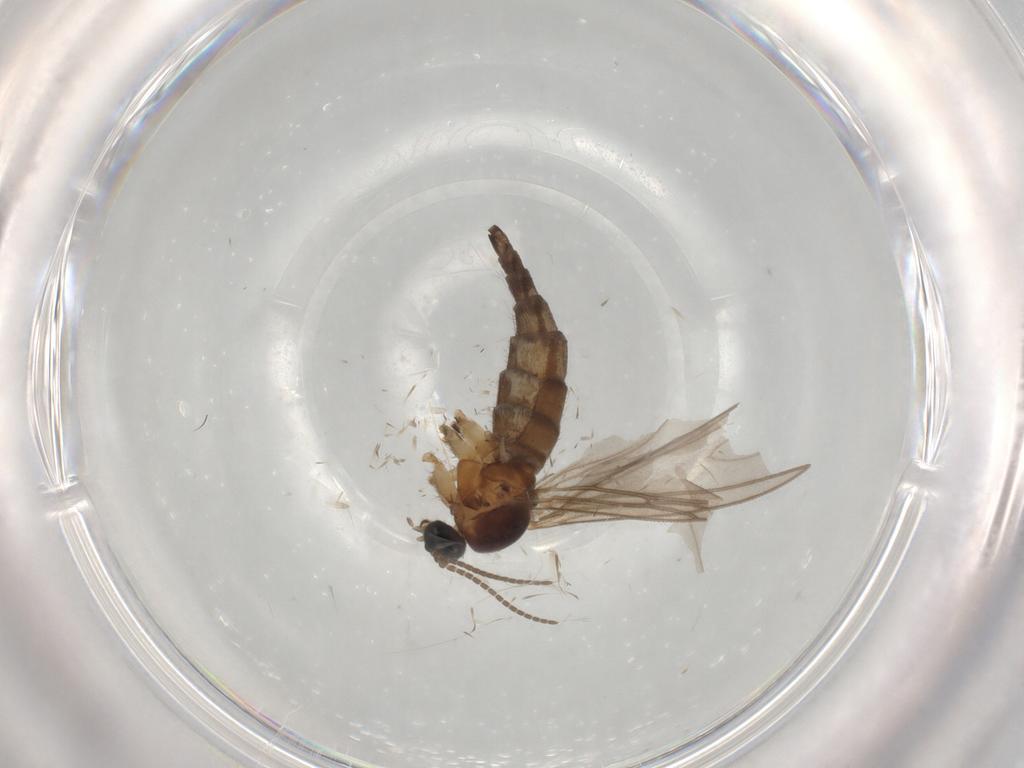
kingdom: Animalia
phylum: Arthropoda
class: Insecta
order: Diptera
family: Sciaridae
